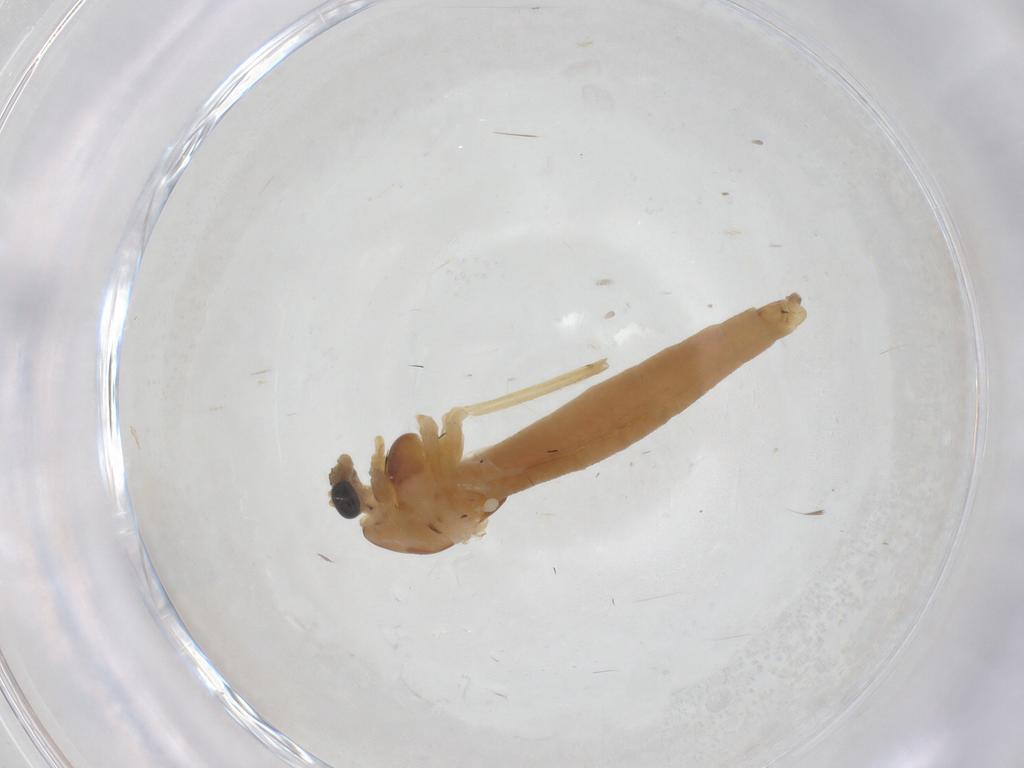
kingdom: Animalia
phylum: Arthropoda
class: Insecta
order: Diptera
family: Chironomidae
